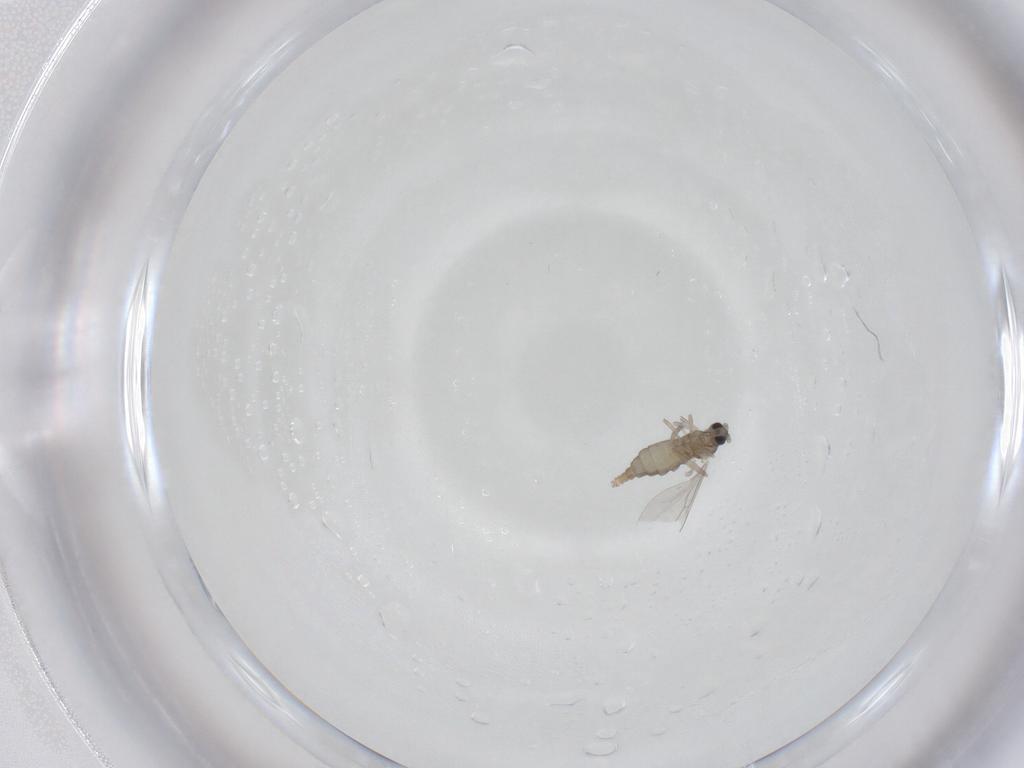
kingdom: Animalia
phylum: Arthropoda
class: Insecta
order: Diptera
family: Cecidomyiidae
